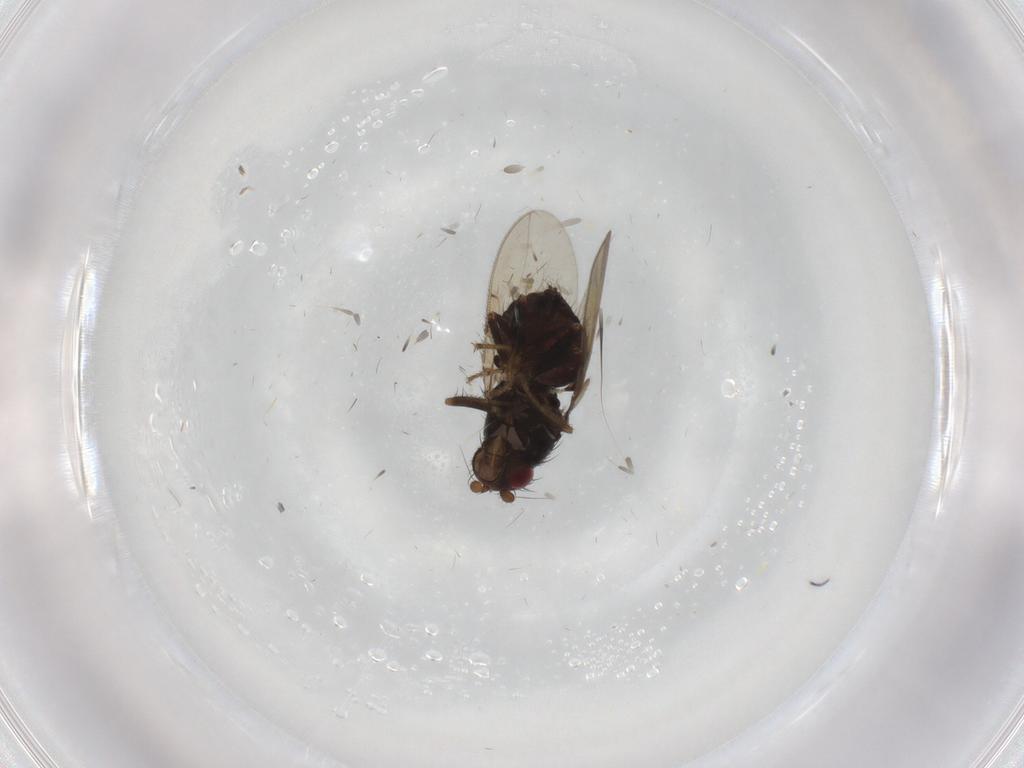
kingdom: Animalia
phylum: Arthropoda
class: Insecta
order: Diptera
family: Sphaeroceridae
